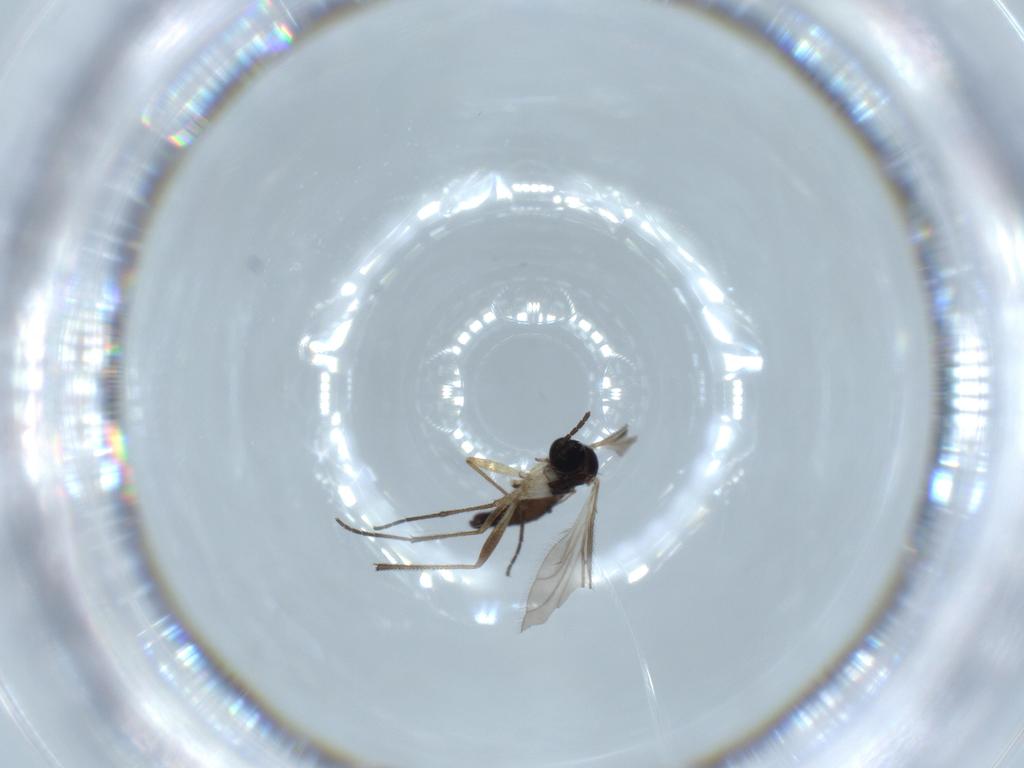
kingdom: Animalia
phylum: Arthropoda
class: Insecta
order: Diptera
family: Sciaridae
